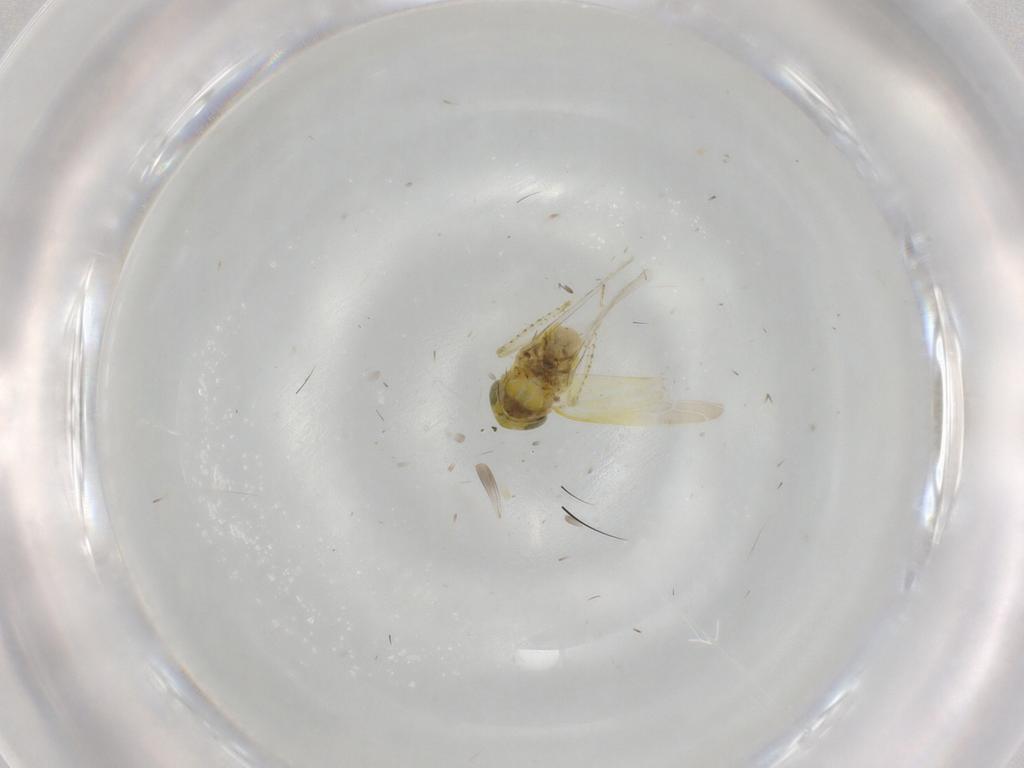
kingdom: Animalia
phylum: Arthropoda
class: Insecta
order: Hemiptera
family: Cicadellidae
